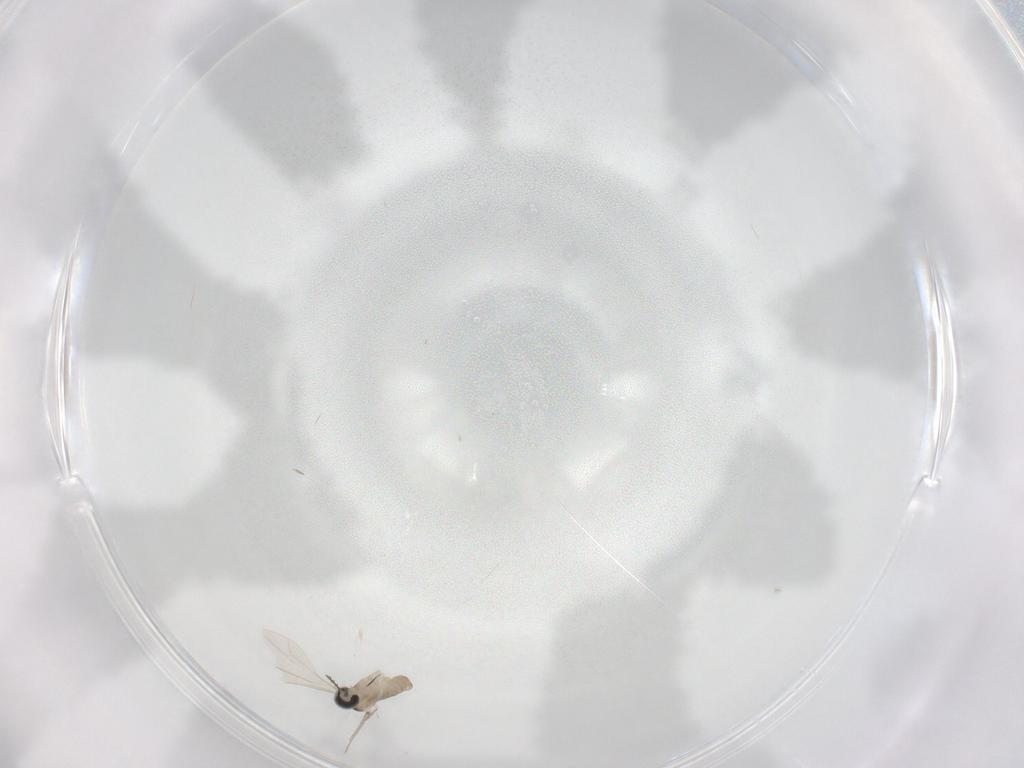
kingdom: Animalia
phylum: Arthropoda
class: Insecta
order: Diptera
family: Cecidomyiidae
